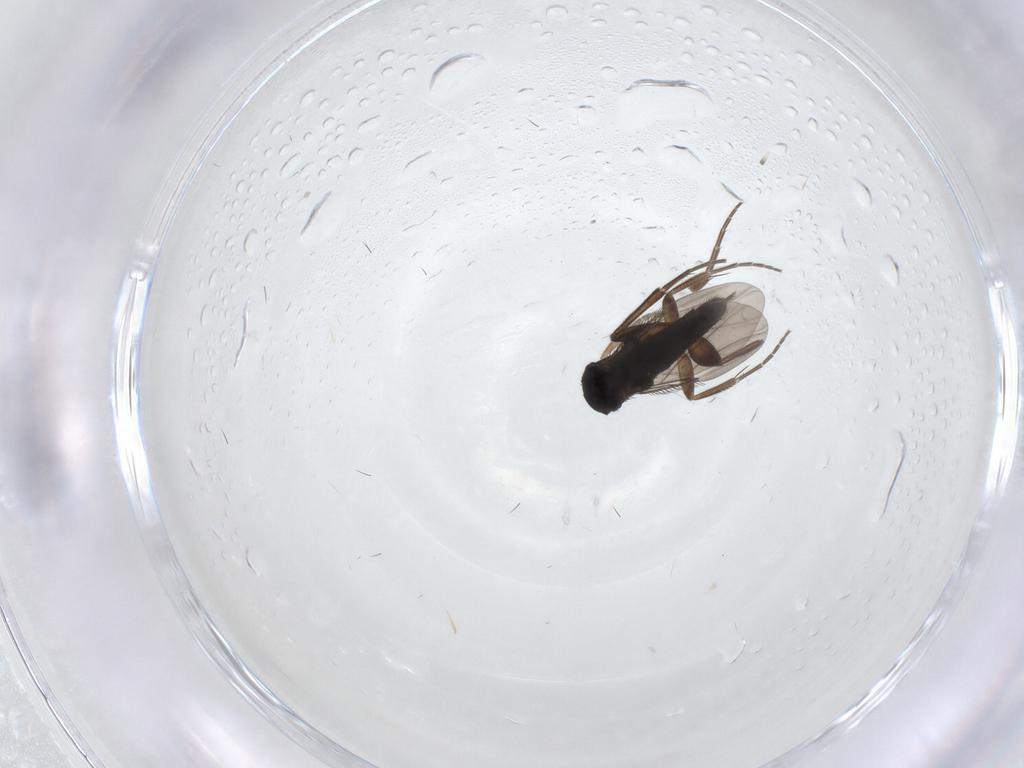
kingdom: Animalia
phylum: Arthropoda
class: Insecta
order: Diptera
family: Phoridae
